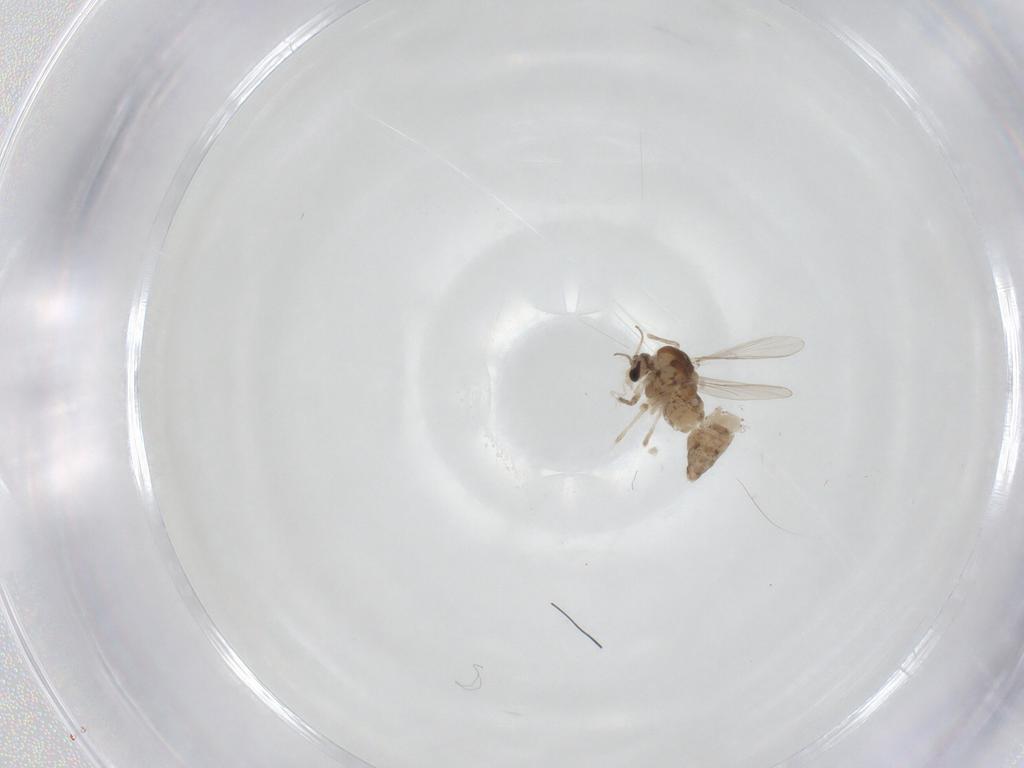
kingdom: Animalia
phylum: Arthropoda
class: Insecta
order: Diptera
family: Chironomidae
